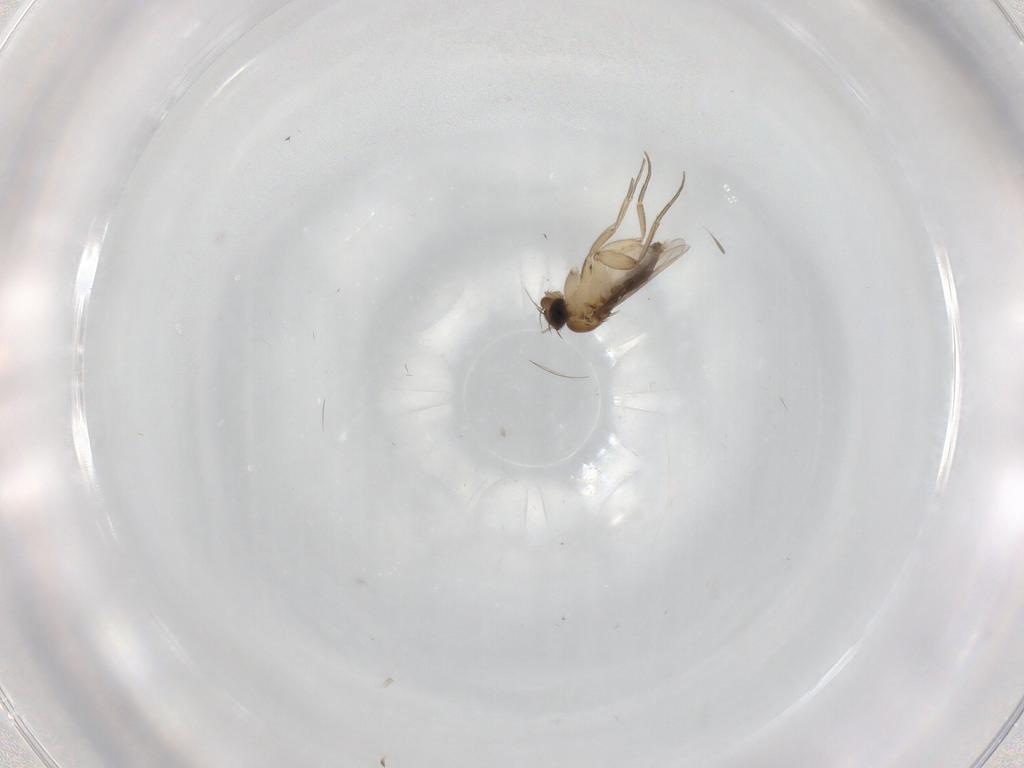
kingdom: Animalia
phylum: Arthropoda
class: Insecta
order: Diptera
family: Phoridae
